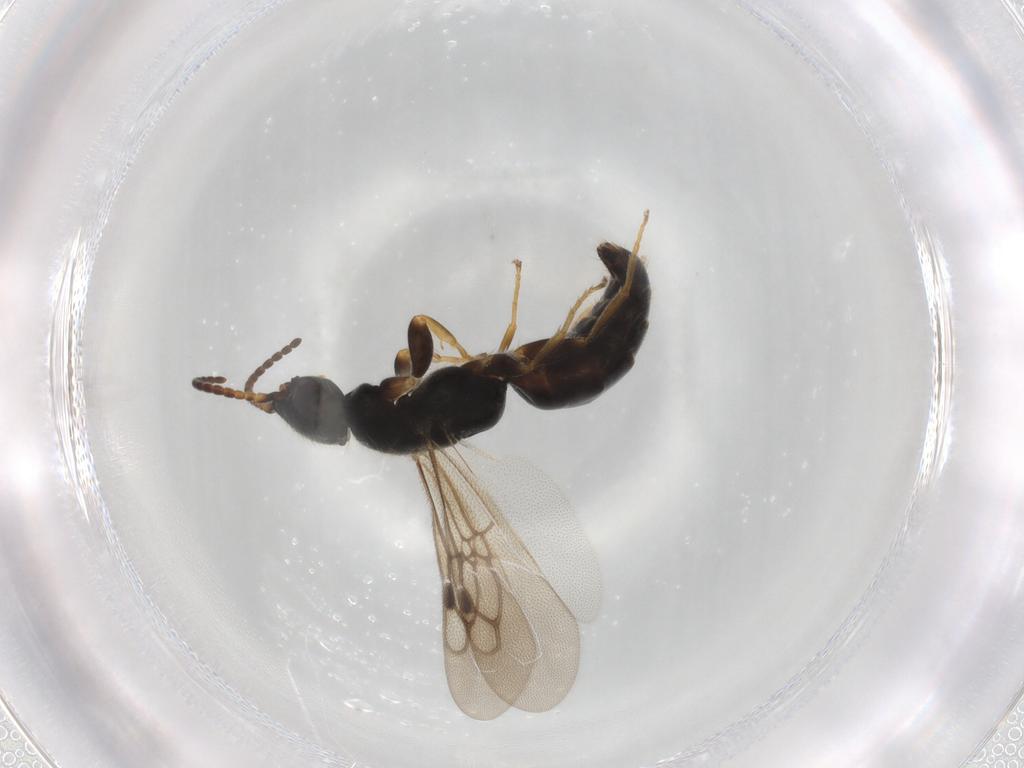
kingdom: Animalia
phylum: Arthropoda
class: Insecta
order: Hymenoptera
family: Bethylidae
